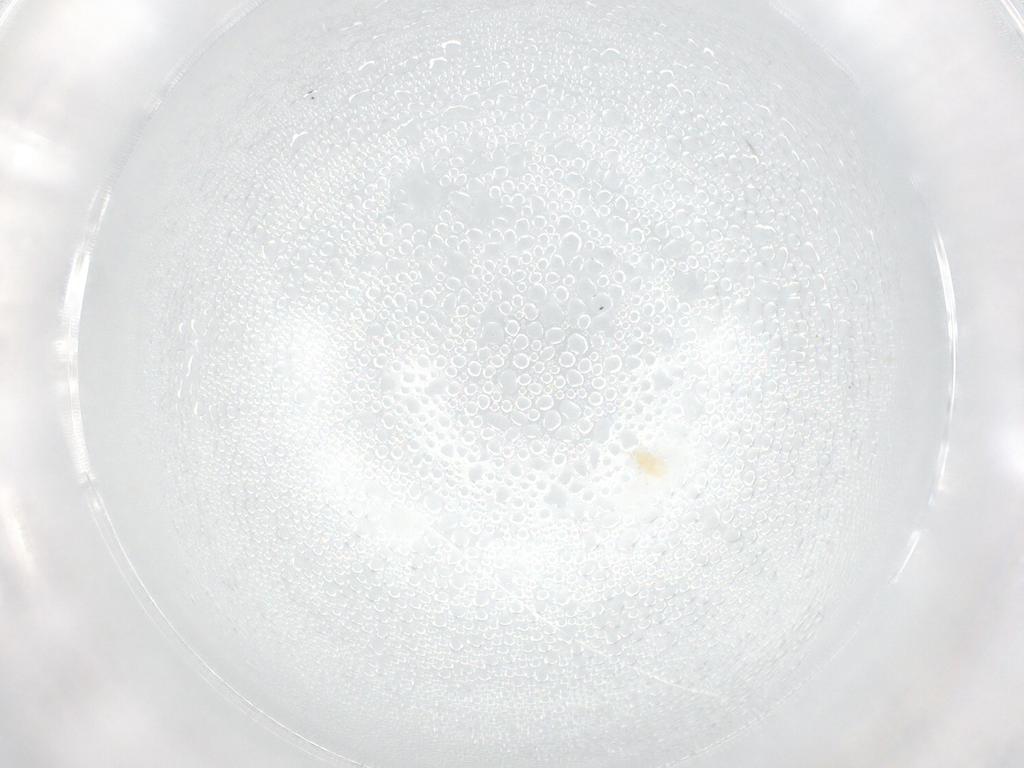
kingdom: Animalia
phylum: Arthropoda
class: Arachnida
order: Trombidiformes
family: Eupodidae
